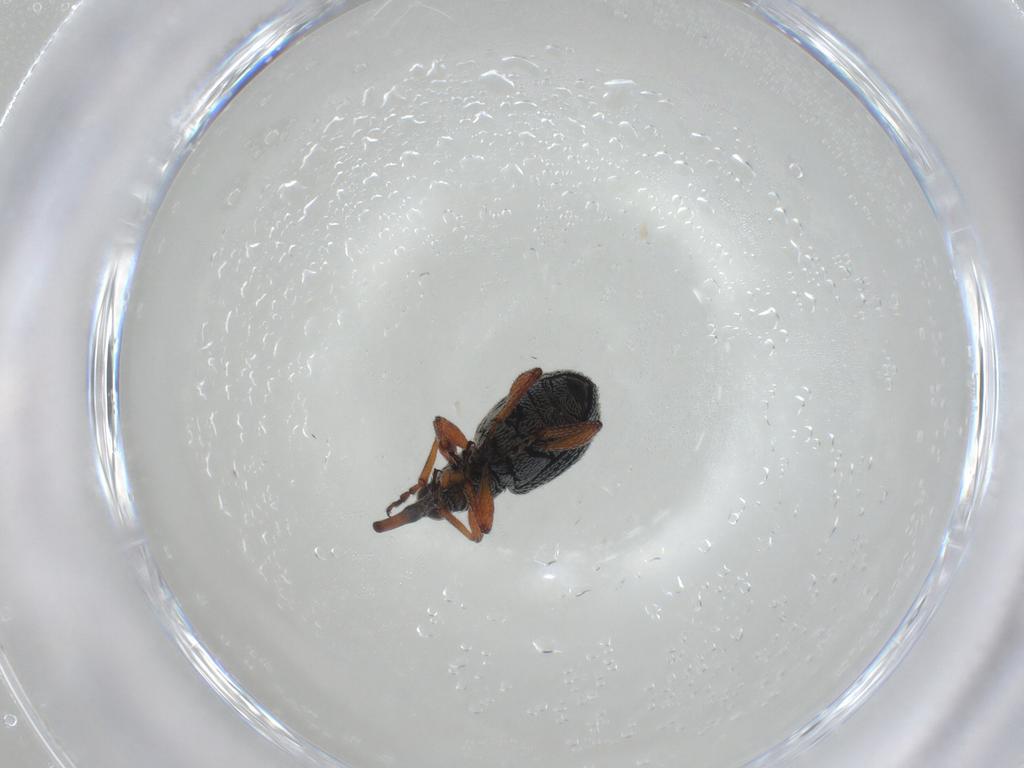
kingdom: Animalia
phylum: Arthropoda
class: Insecta
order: Coleoptera
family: Brentidae
